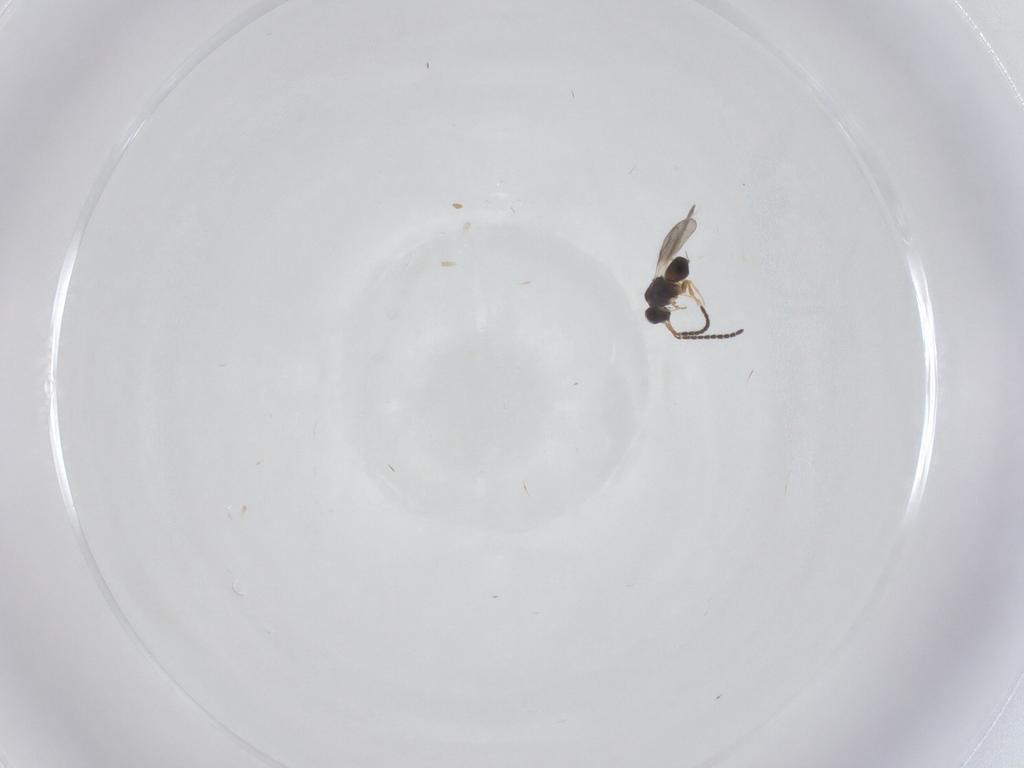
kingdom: Animalia
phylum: Arthropoda
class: Insecta
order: Hymenoptera
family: Ceraphronidae
